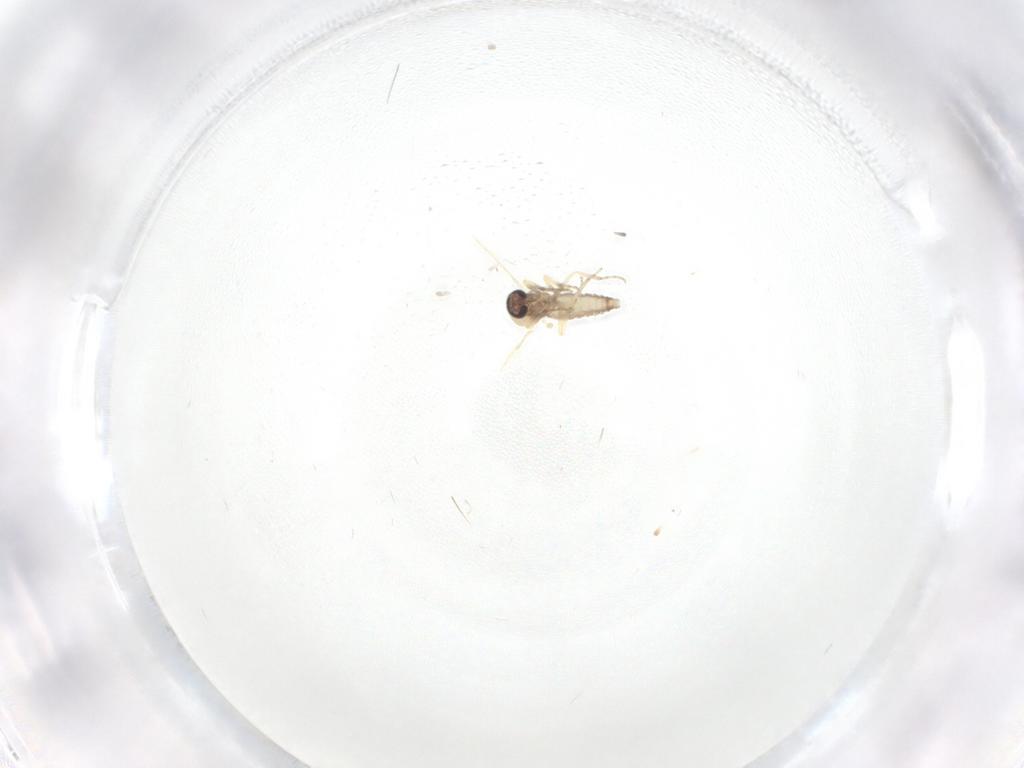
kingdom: Animalia
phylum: Arthropoda
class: Insecta
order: Diptera
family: Ceratopogonidae
